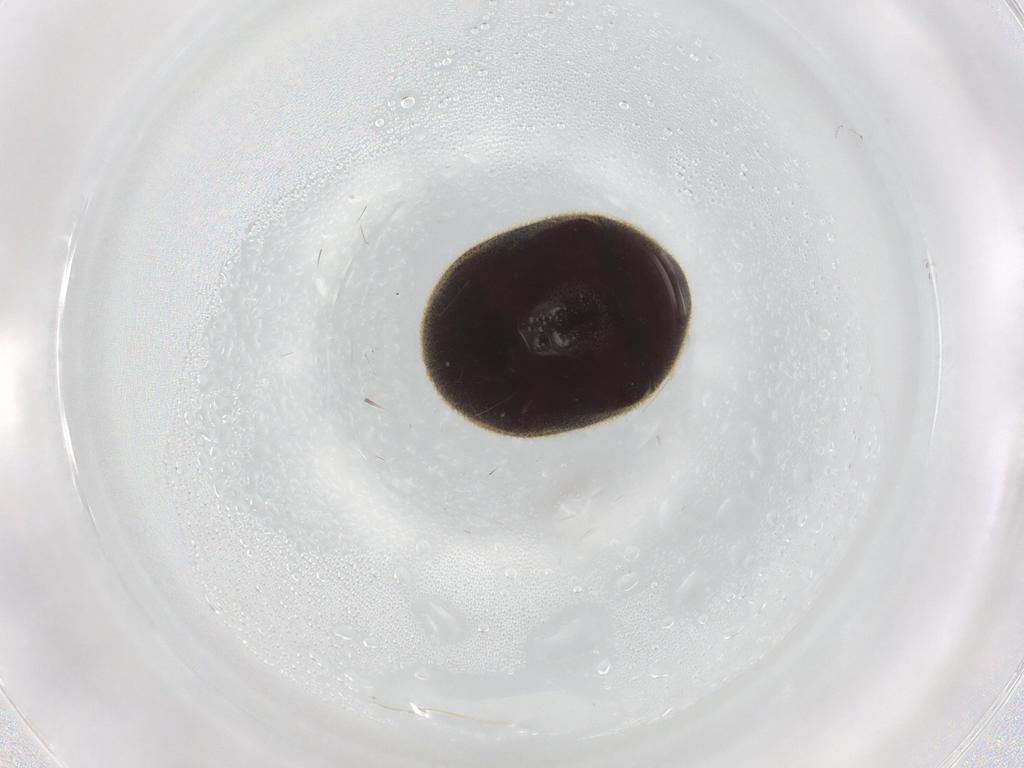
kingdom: Animalia
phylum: Arthropoda
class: Insecta
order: Coleoptera
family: Ptinidae
